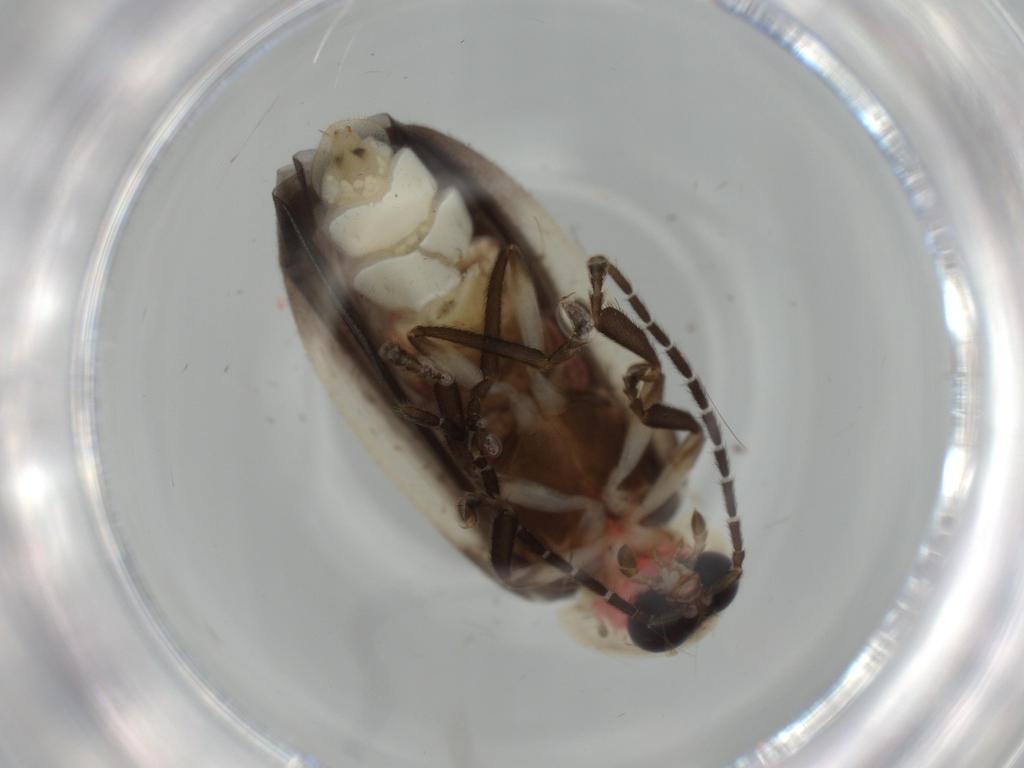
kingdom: Animalia
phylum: Arthropoda
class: Insecta
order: Coleoptera
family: Lampyridae
